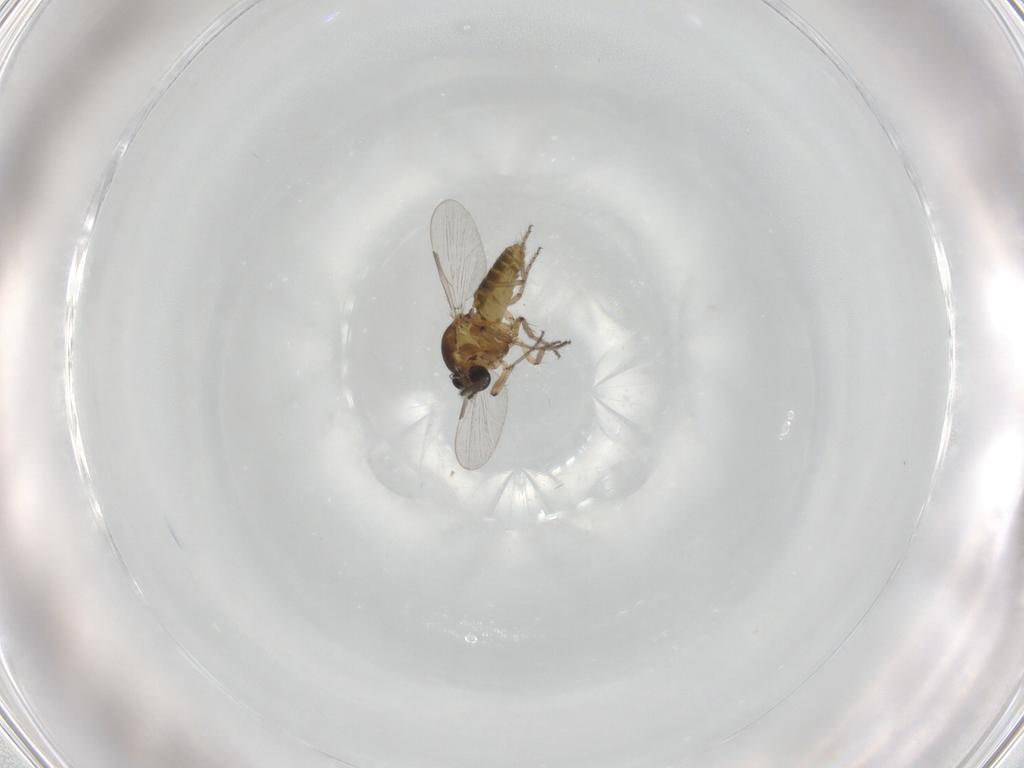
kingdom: Animalia
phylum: Arthropoda
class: Insecta
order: Diptera
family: Ceratopogonidae
